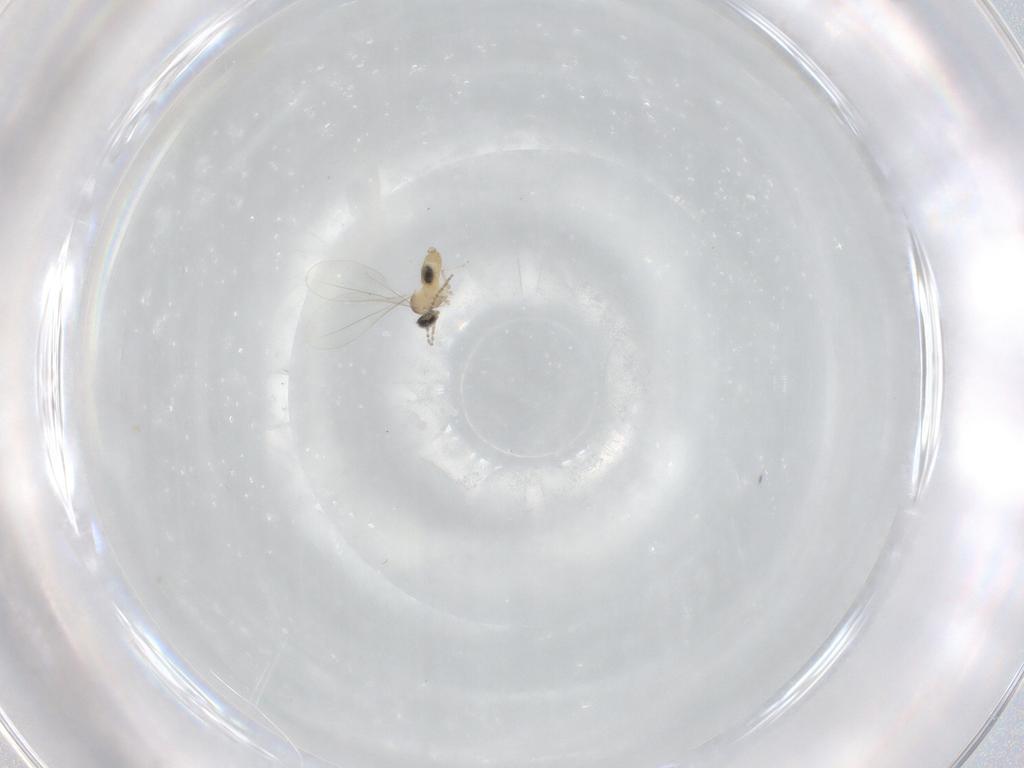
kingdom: Animalia
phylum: Arthropoda
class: Insecta
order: Diptera
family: Cecidomyiidae
